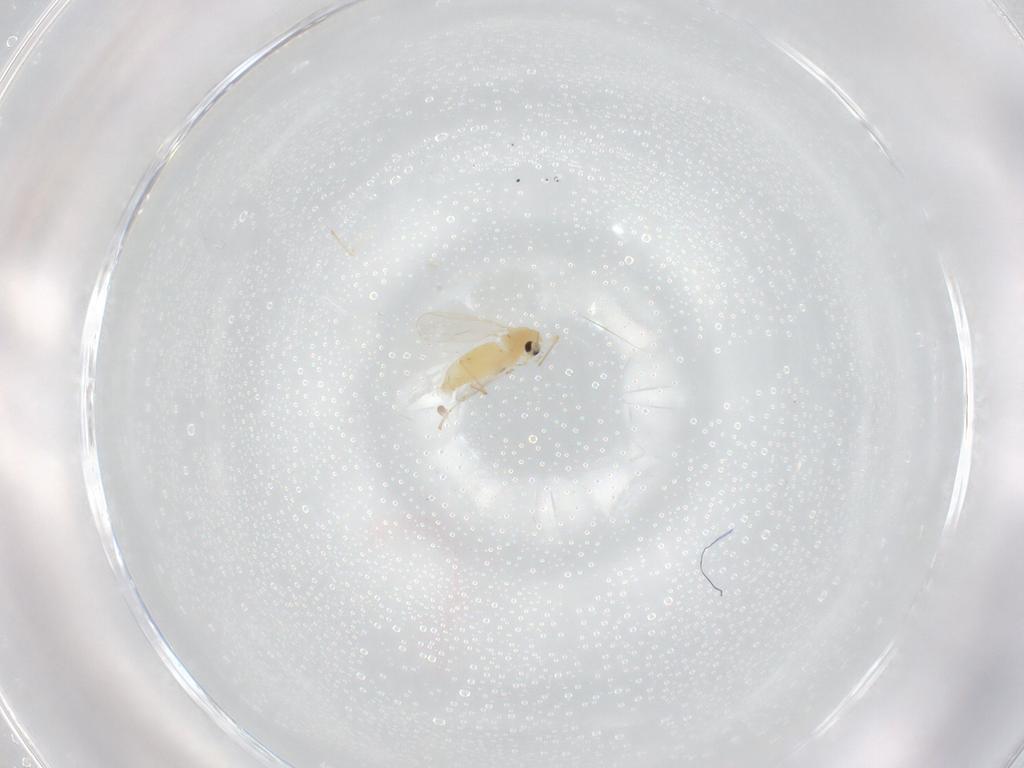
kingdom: Animalia
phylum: Arthropoda
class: Insecta
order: Diptera
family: Chironomidae
